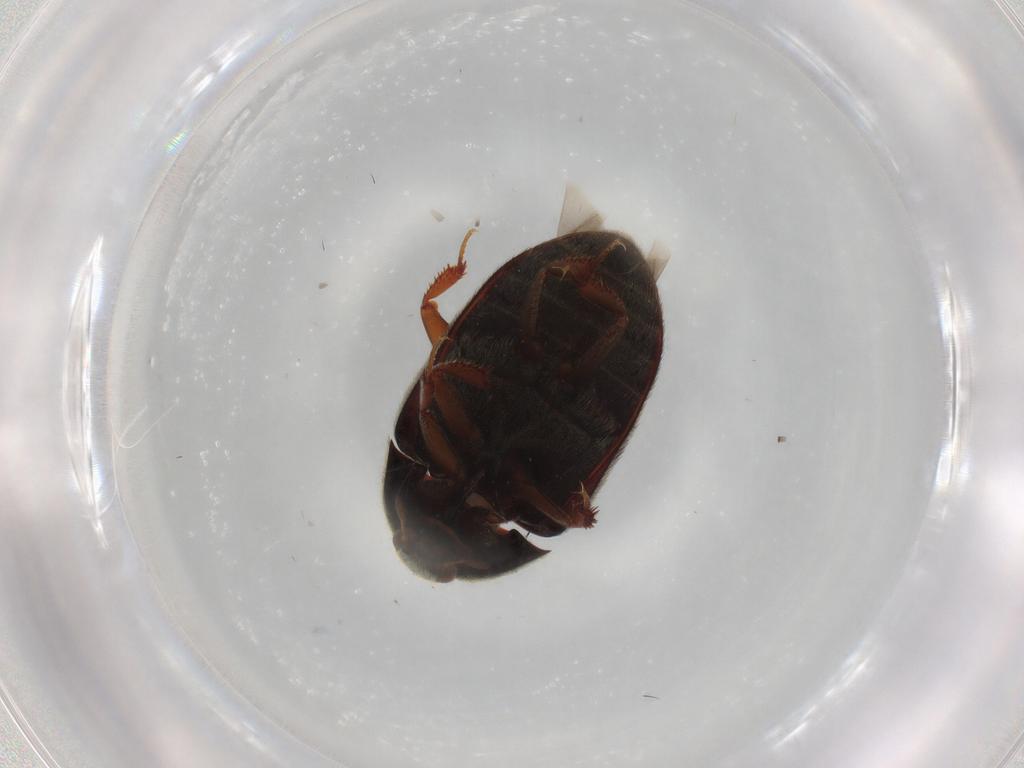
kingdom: Animalia
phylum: Arthropoda
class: Insecta
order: Coleoptera
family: Dermestidae
